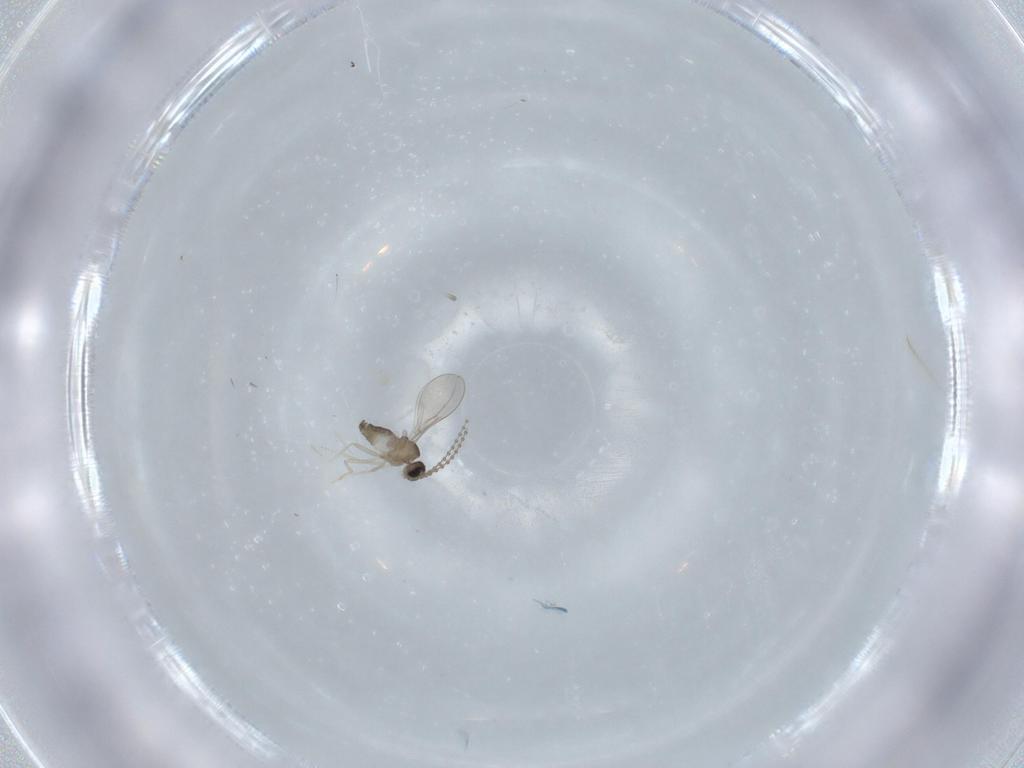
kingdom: Animalia
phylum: Arthropoda
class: Insecta
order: Diptera
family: Cecidomyiidae
